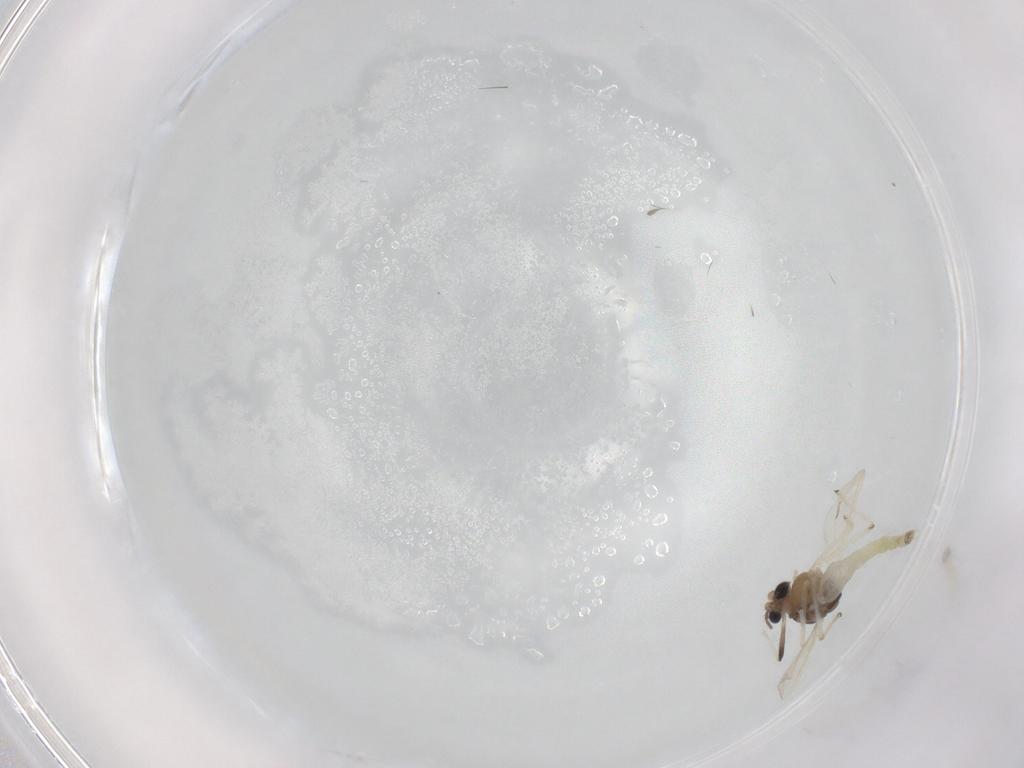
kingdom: Animalia
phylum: Arthropoda
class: Insecta
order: Diptera
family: Chironomidae
